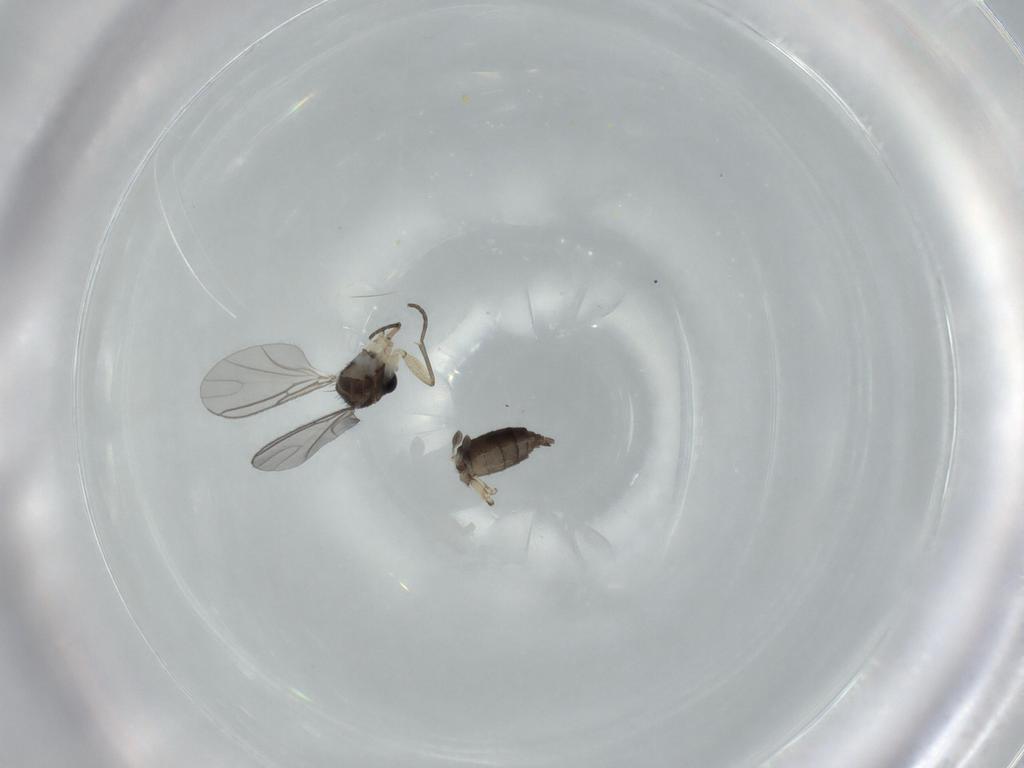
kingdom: Animalia
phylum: Arthropoda
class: Insecta
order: Diptera
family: Sciaridae
